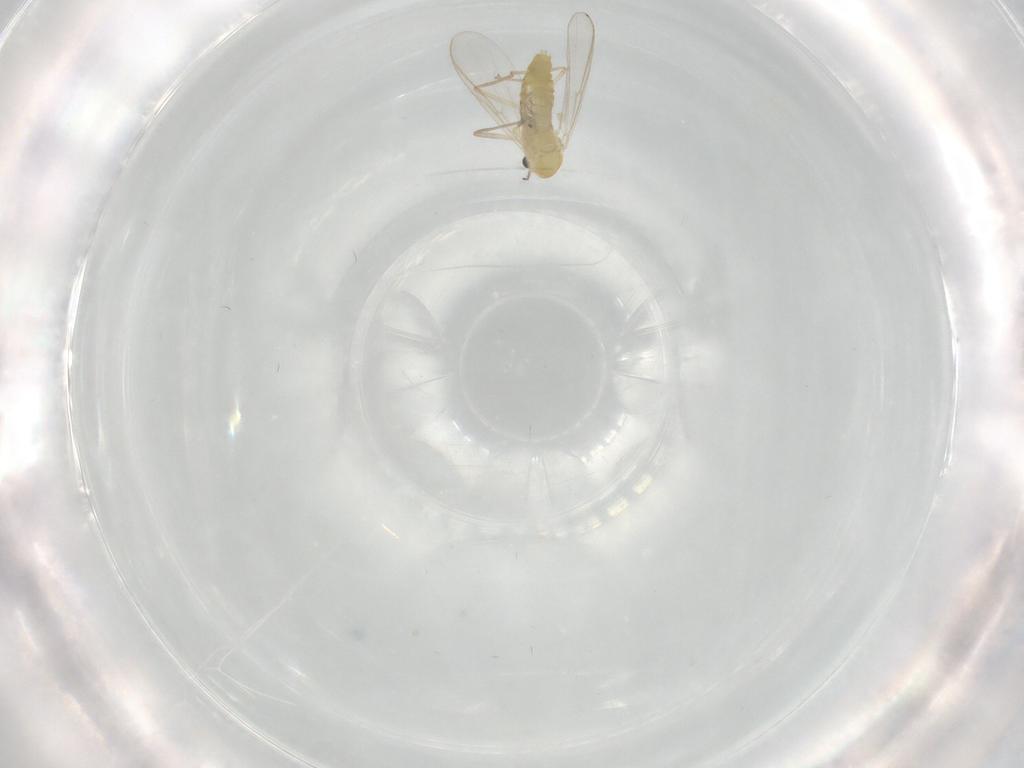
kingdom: Animalia
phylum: Arthropoda
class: Insecta
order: Diptera
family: Chironomidae
